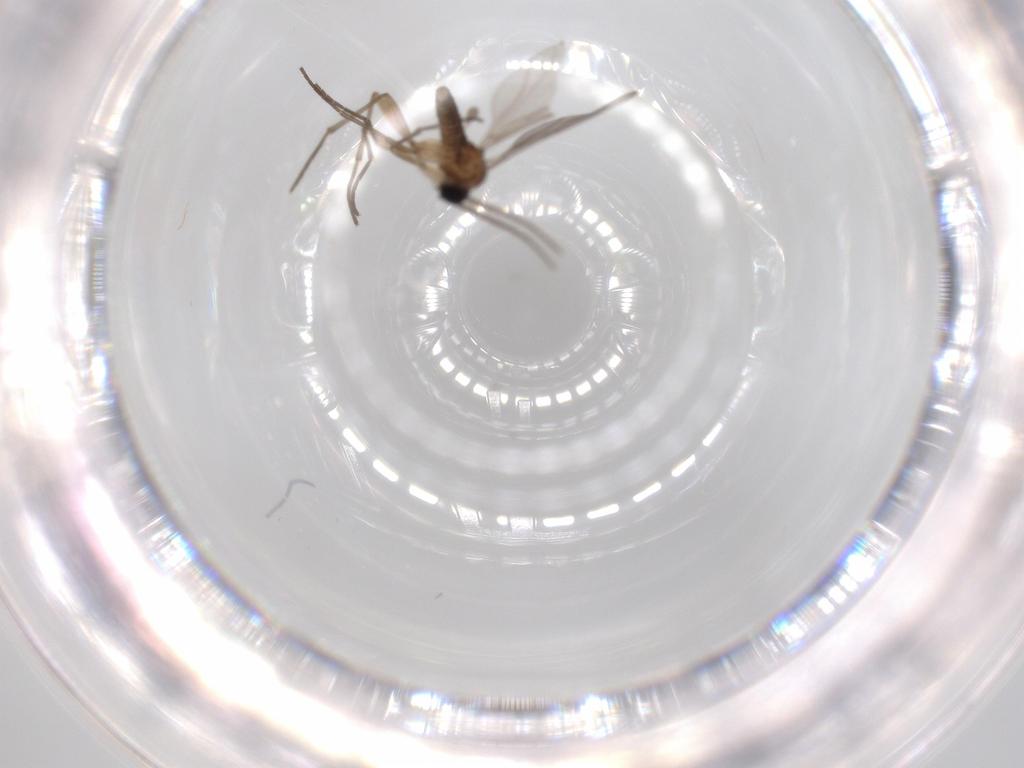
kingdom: Animalia
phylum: Arthropoda
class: Insecta
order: Diptera
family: Sciaridae
